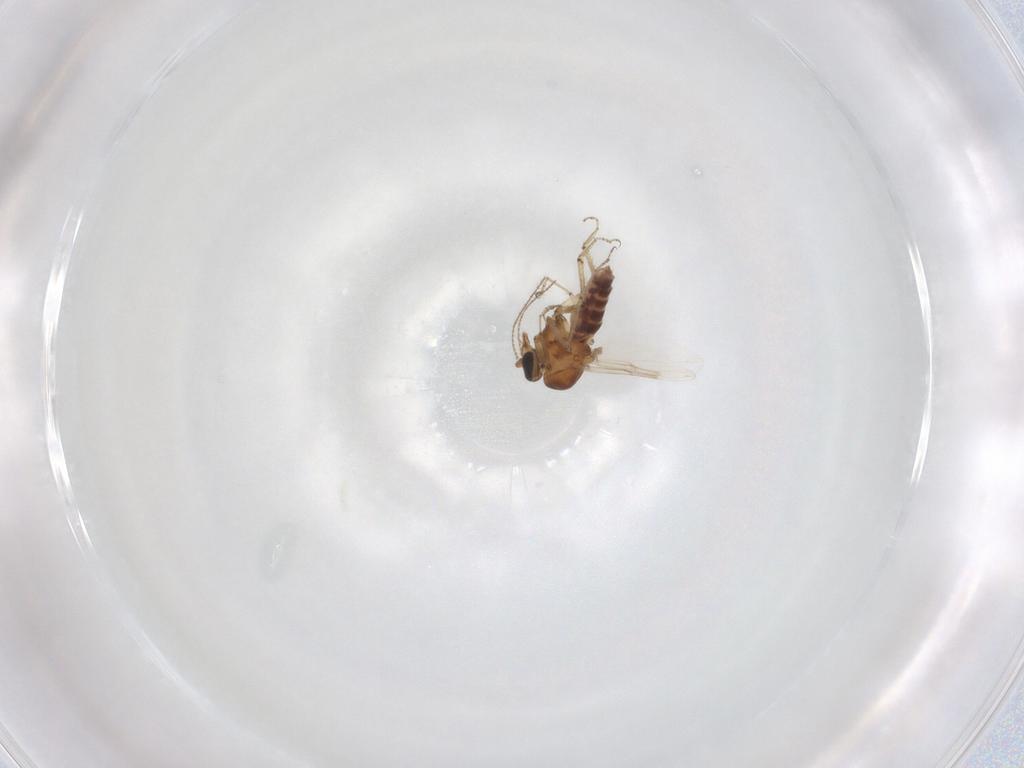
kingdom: Animalia
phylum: Arthropoda
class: Insecta
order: Diptera
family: Ceratopogonidae
